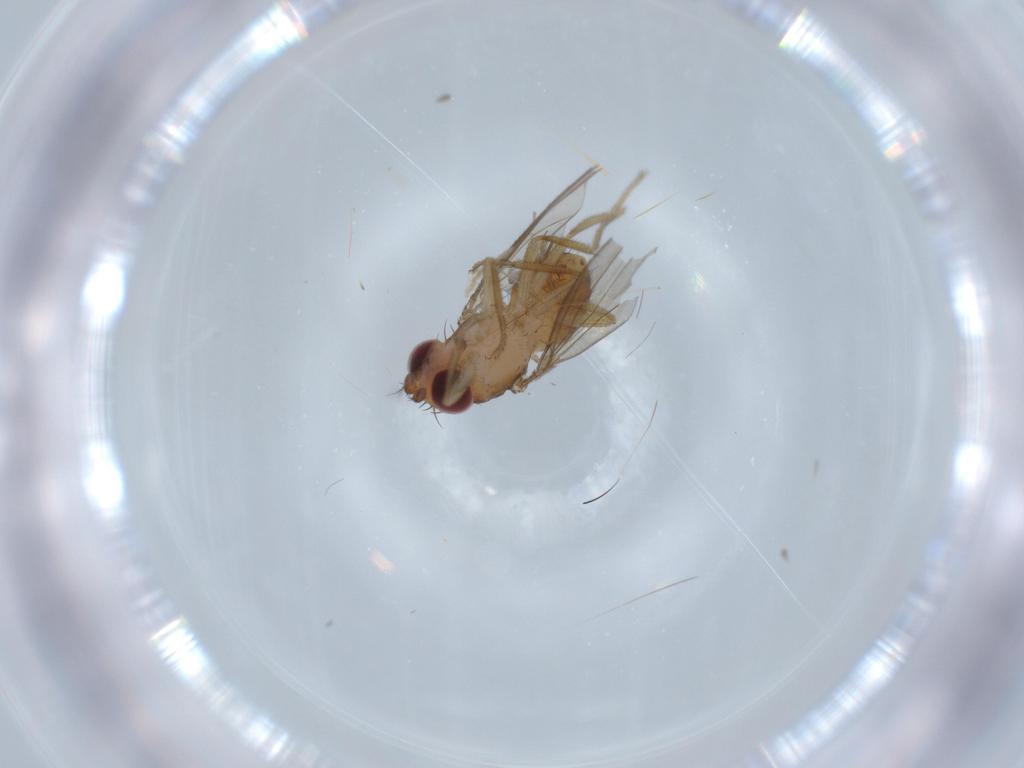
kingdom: Animalia
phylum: Arthropoda
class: Insecta
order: Diptera
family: Drosophilidae
